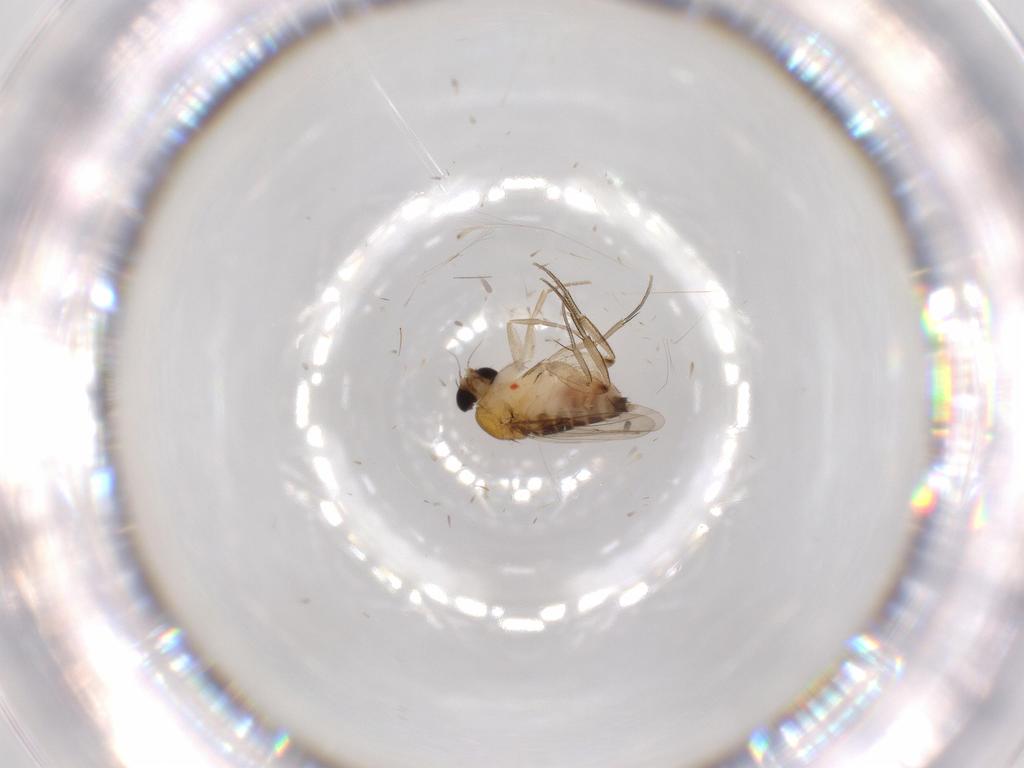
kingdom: Animalia
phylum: Arthropoda
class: Insecta
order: Diptera
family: Phoridae
